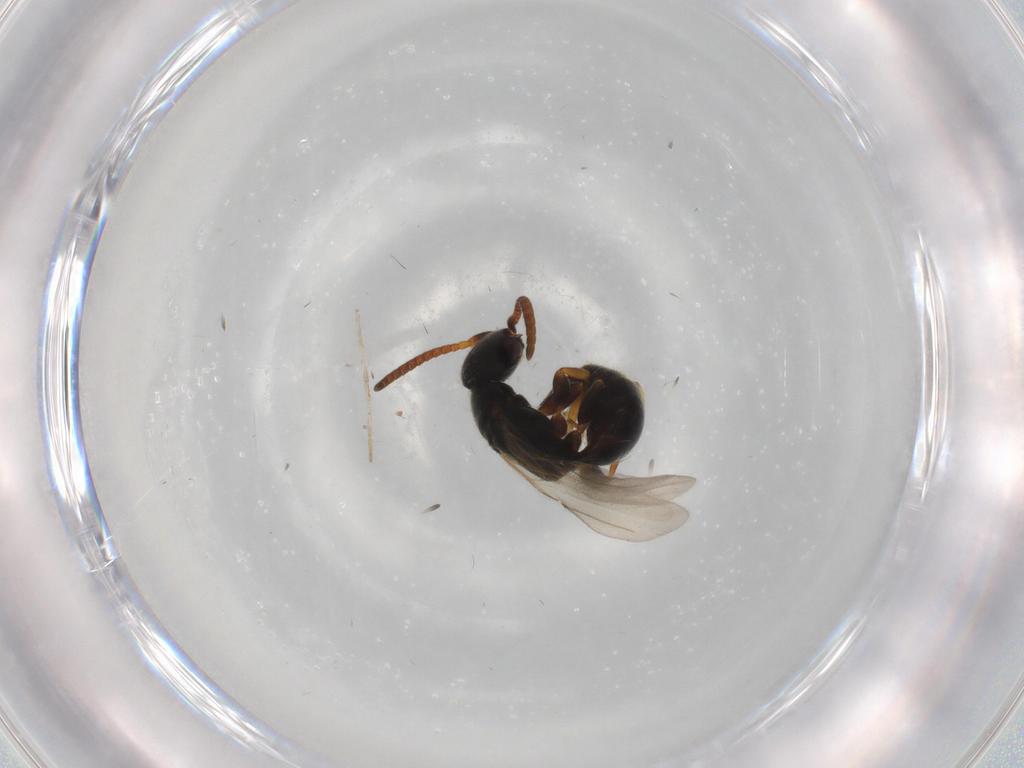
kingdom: Animalia
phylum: Arthropoda
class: Insecta
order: Hymenoptera
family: Bethylidae
